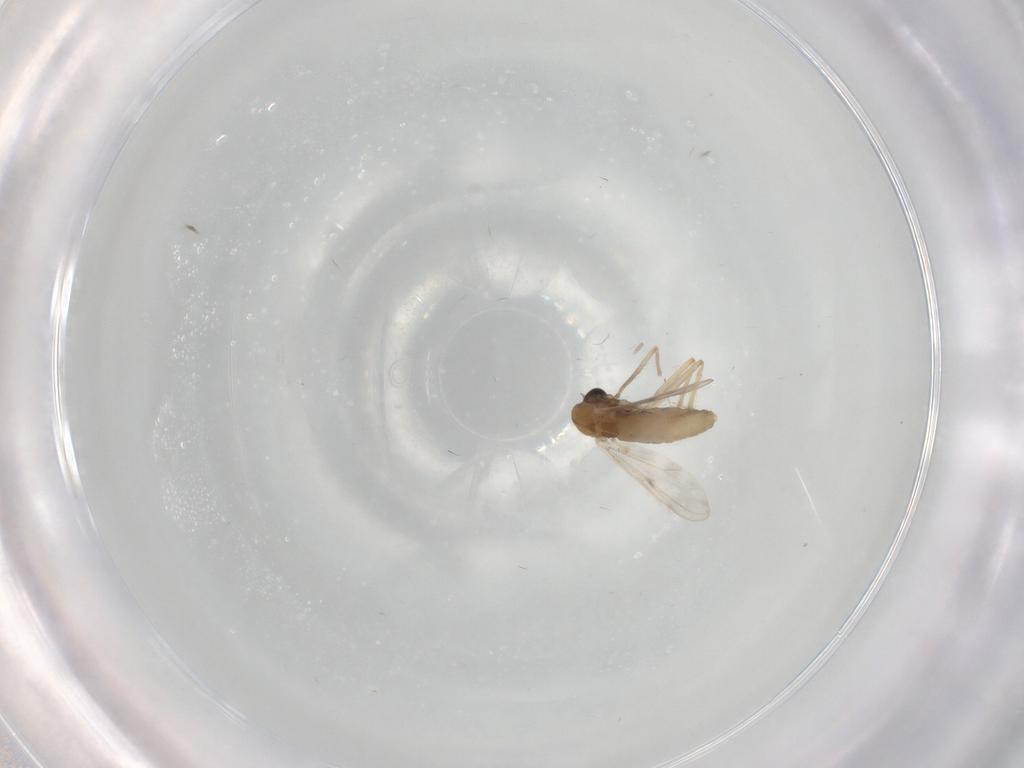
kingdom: Animalia
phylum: Arthropoda
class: Insecta
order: Diptera
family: Chironomidae
